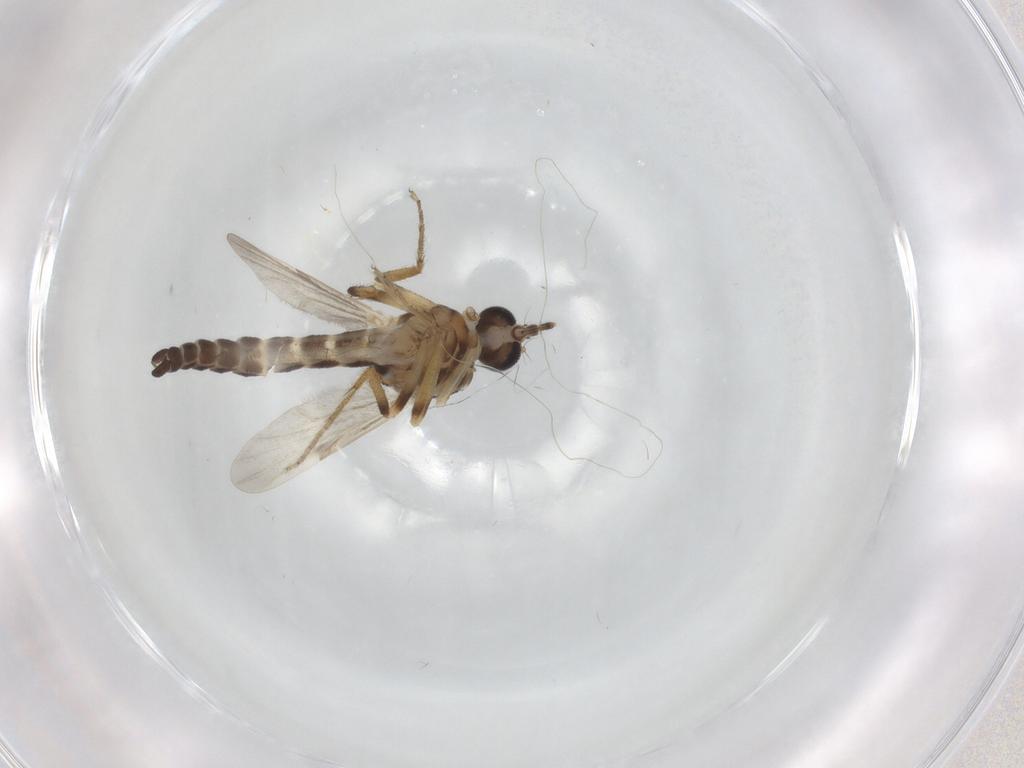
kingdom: Animalia
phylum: Arthropoda
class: Insecta
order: Diptera
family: Ceratopogonidae
